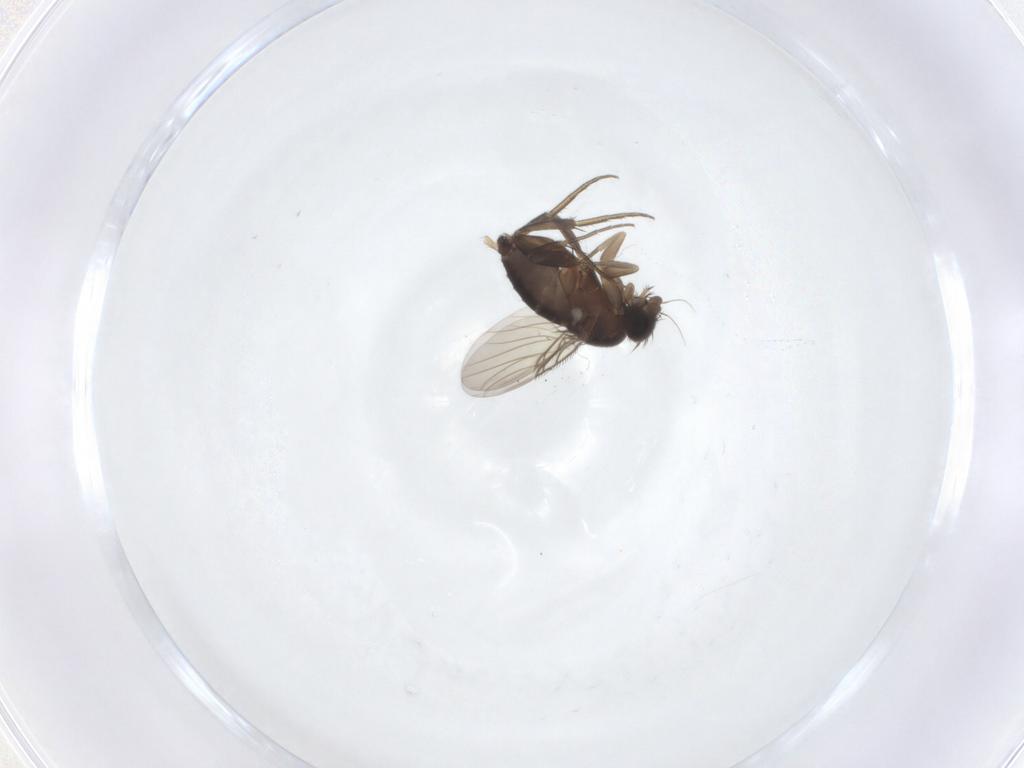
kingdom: Animalia
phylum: Arthropoda
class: Insecta
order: Diptera
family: Phoridae
